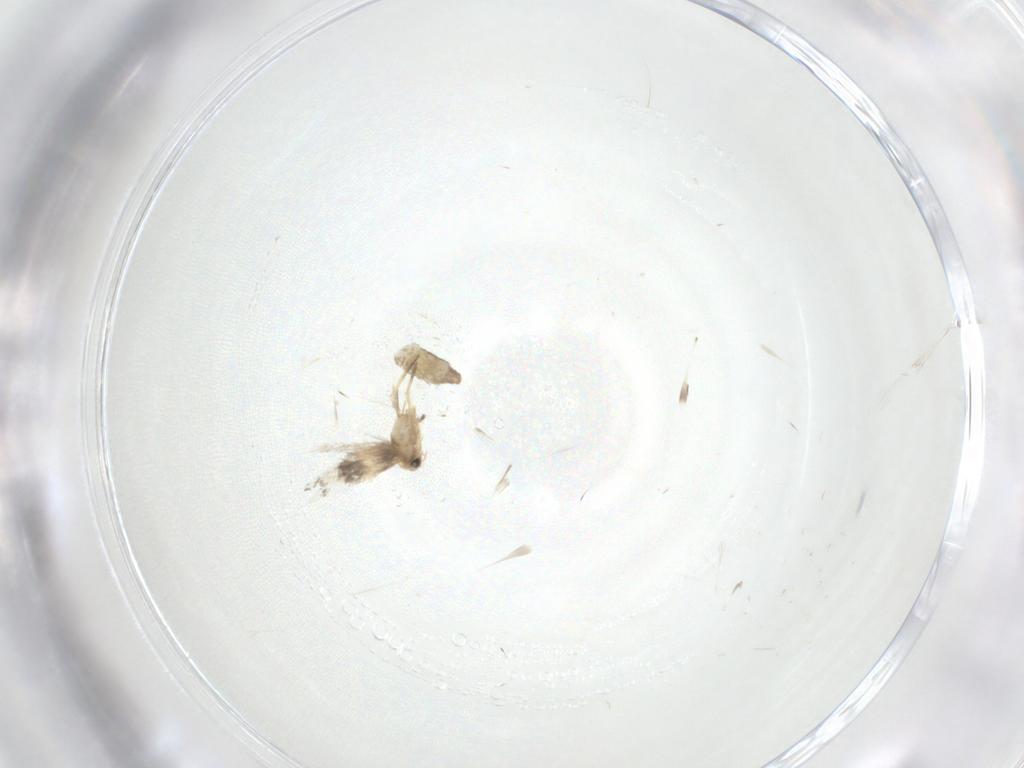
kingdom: Animalia
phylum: Arthropoda
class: Insecta
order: Lepidoptera
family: Nepticulidae
